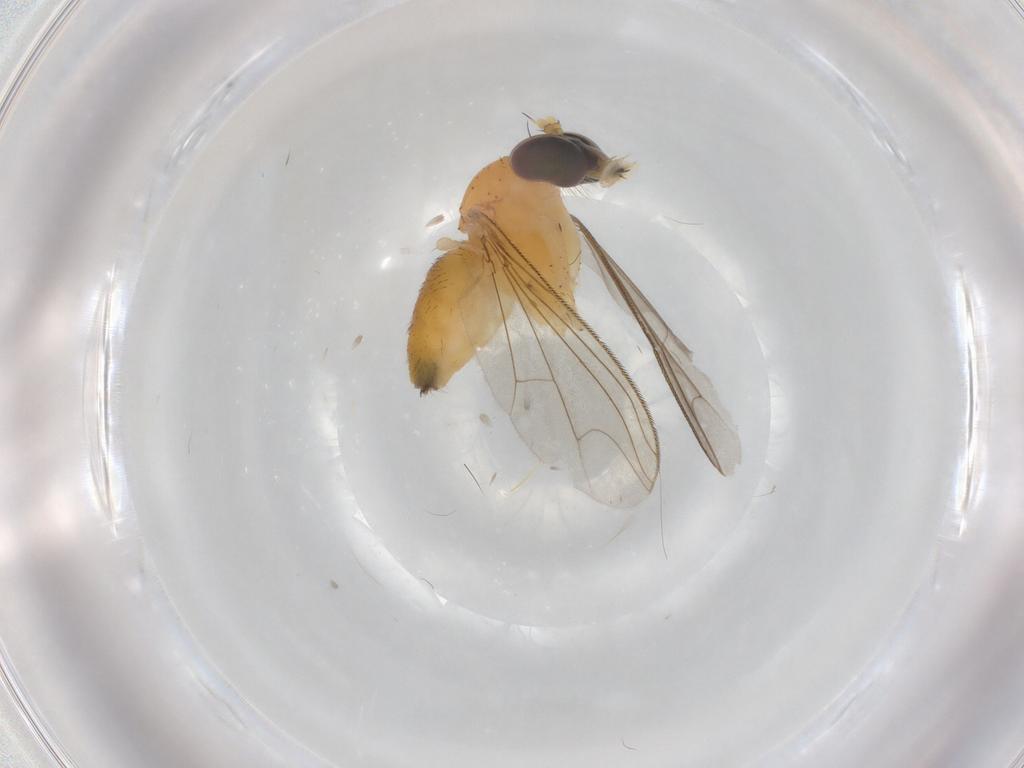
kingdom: Animalia
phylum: Arthropoda
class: Insecta
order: Diptera
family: Dolichopodidae
